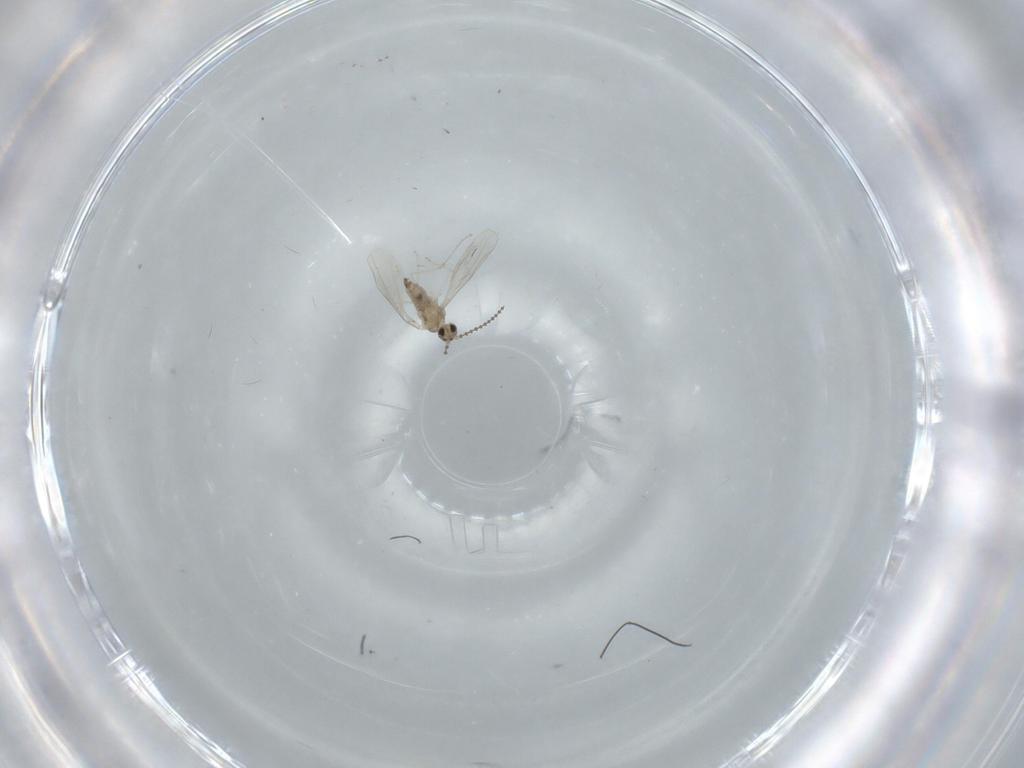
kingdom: Animalia
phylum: Arthropoda
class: Insecta
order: Diptera
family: Cecidomyiidae
